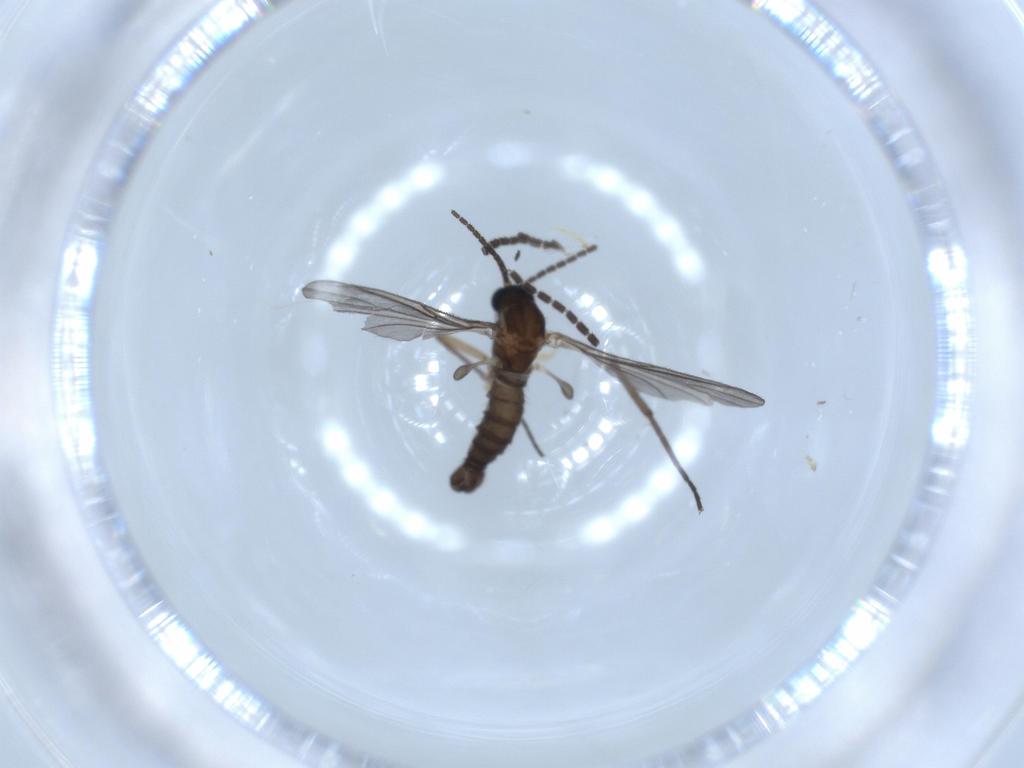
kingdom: Animalia
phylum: Arthropoda
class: Insecta
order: Diptera
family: Sciaridae
